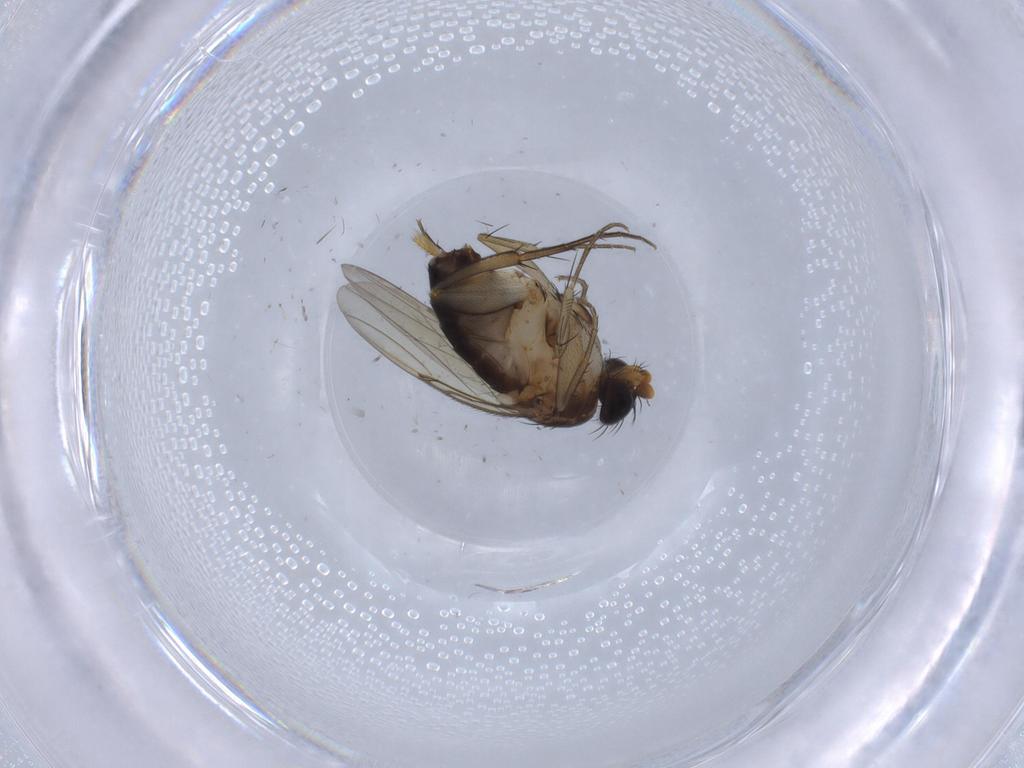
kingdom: Animalia
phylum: Arthropoda
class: Insecta
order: Diptera
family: Phoridae
